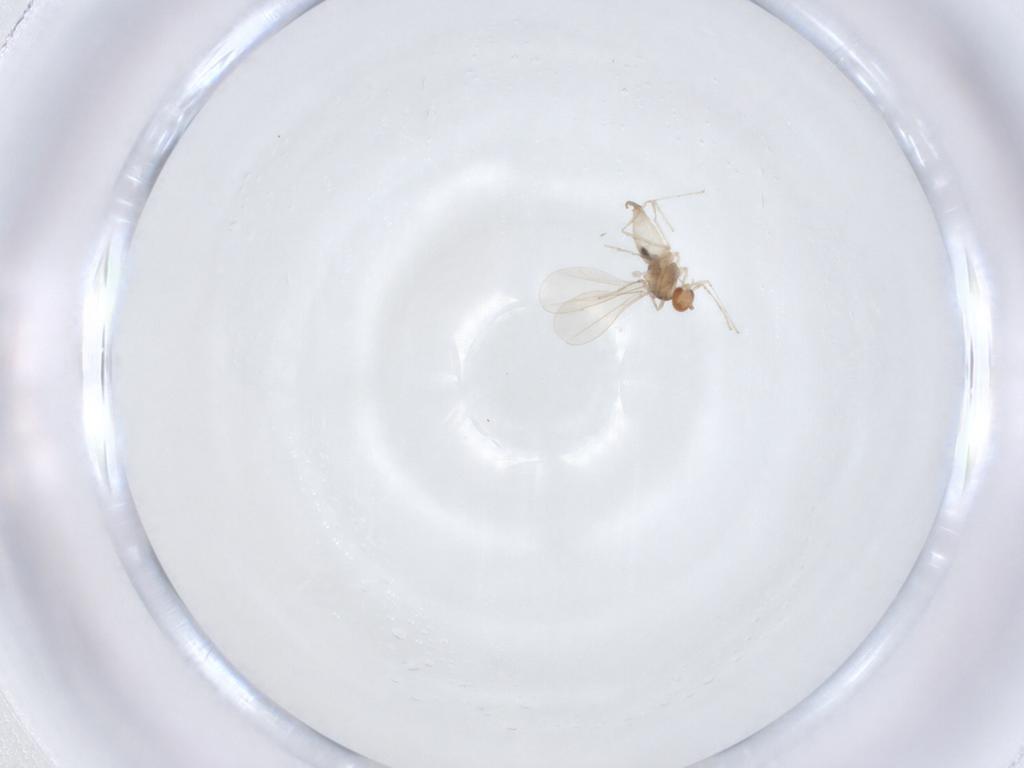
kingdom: Animalia
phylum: Arthropoda
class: Insecta
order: Diptera
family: Cecidomyiidae
